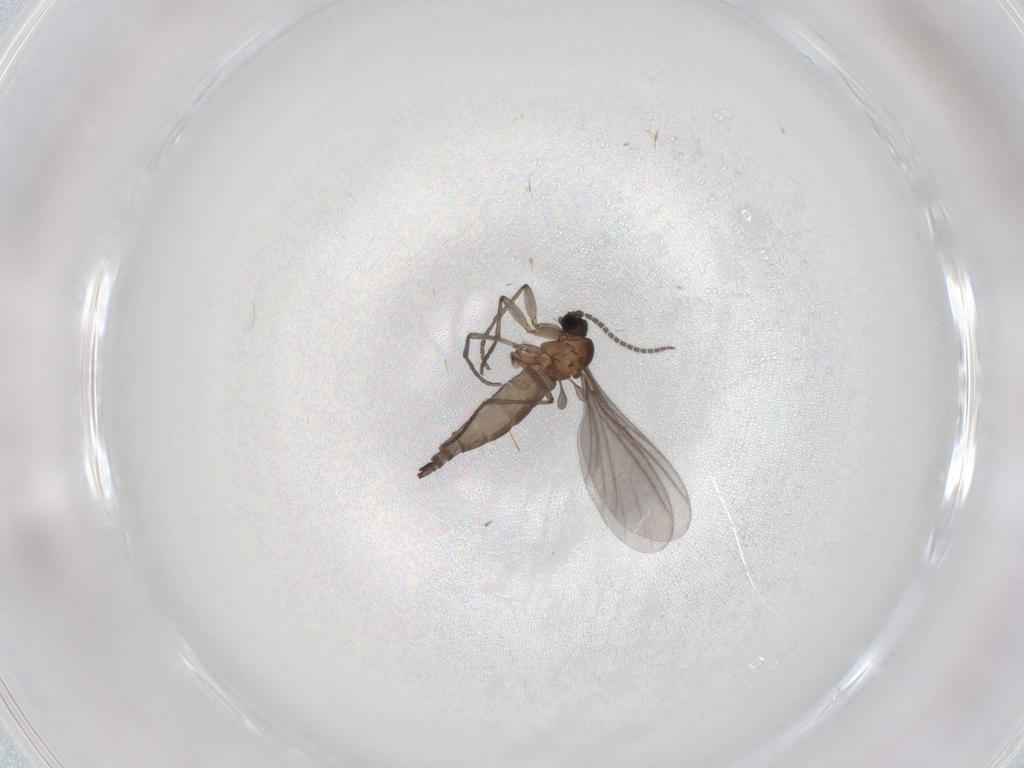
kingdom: Animalia
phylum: Arthropoda
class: Insecta
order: Diptera
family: Sciaridae
